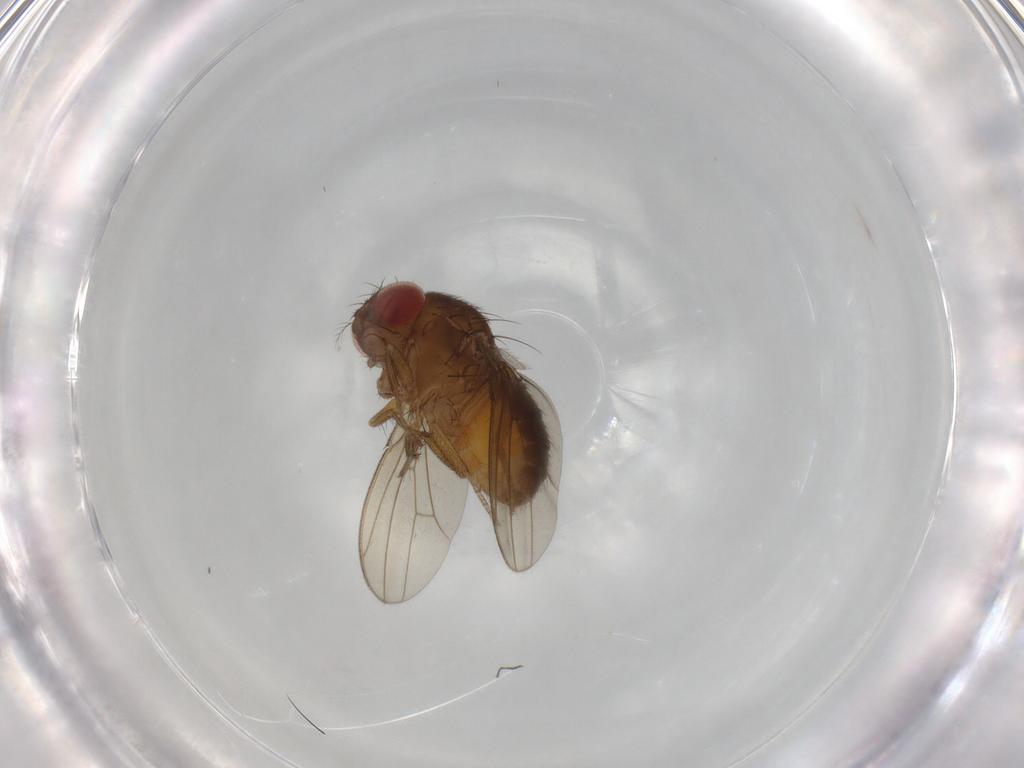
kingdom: Animalia
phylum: Arthropoda
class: Insecta
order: Diptera
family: Drosophilidae
